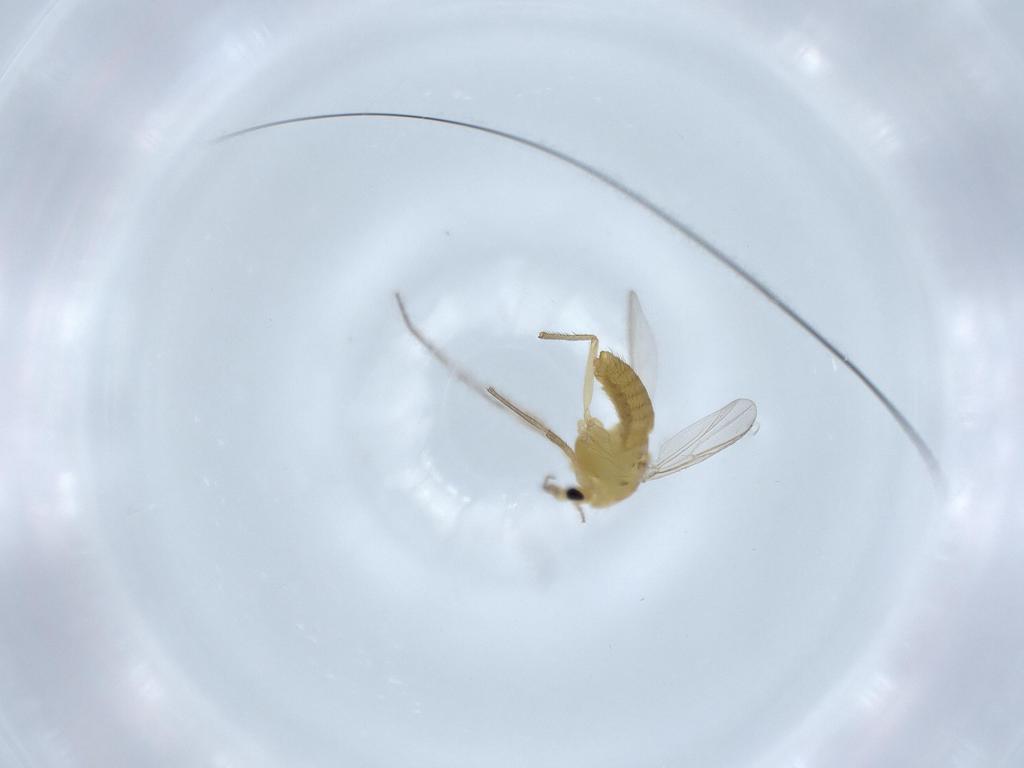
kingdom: Animalia
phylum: Arthropoda
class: Insecta
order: Diptera
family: Chironomidae
